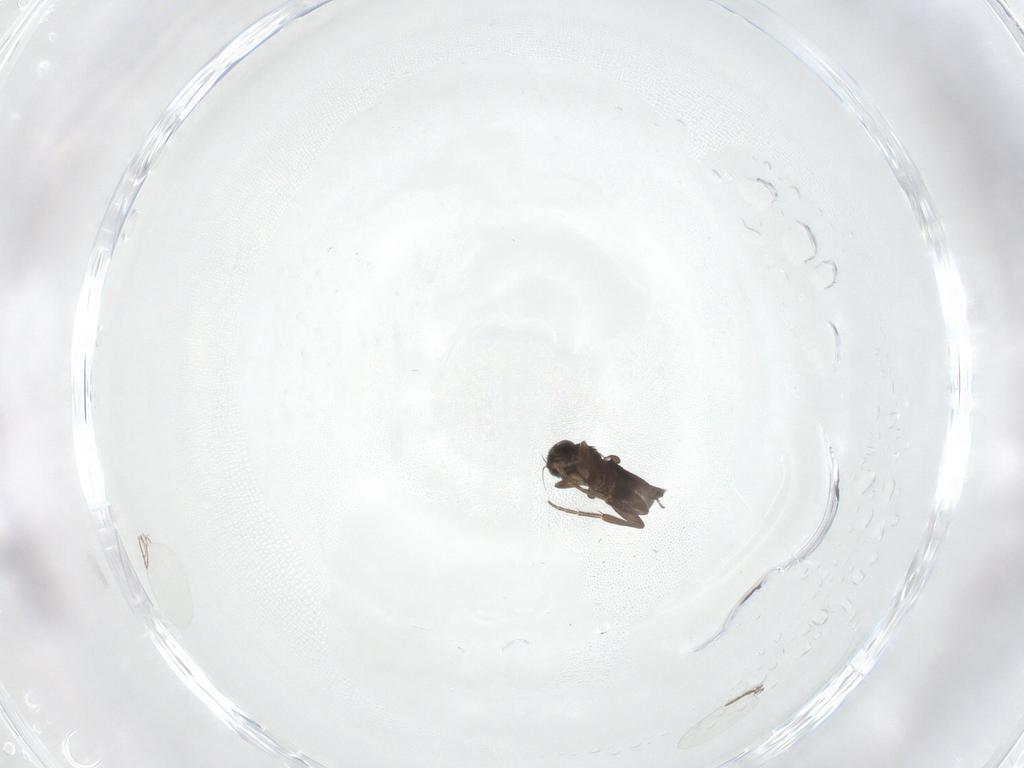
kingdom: Animalia
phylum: Arthropoda
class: Insecta
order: Diptera
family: Phoridae
